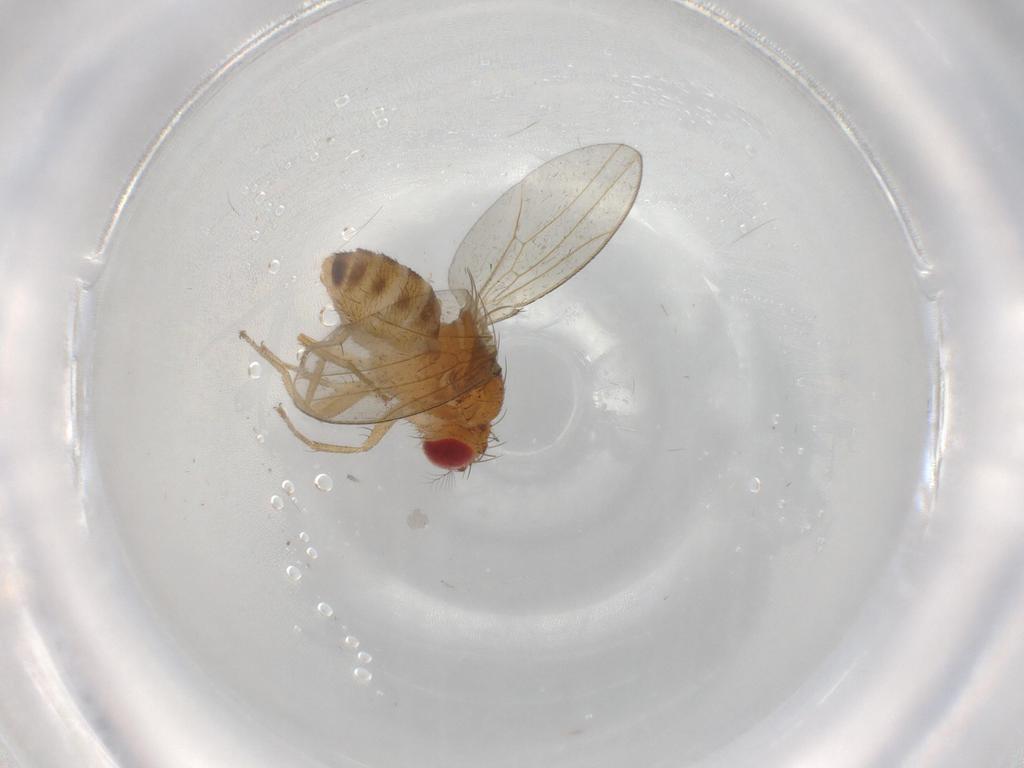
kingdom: Animalia
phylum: Arthropoda
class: Insecta
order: Diptera
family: Drosophilidae
